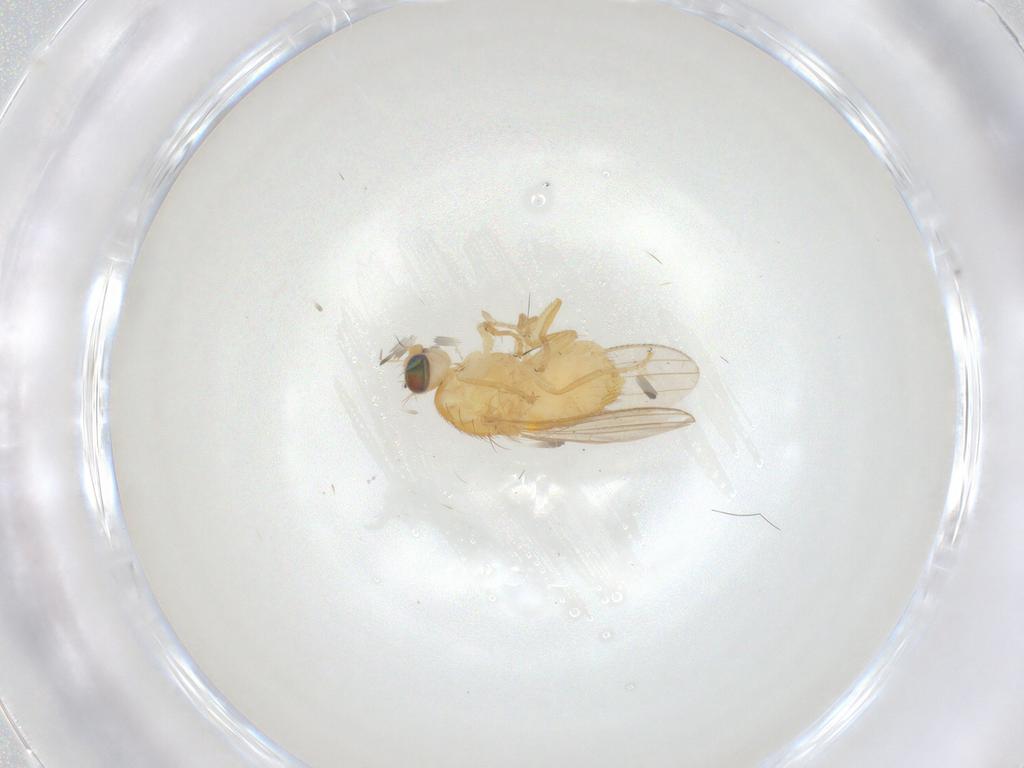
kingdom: Animalia
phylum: Arthropoda
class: Insecta
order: Diptera
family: Chyromyidae
